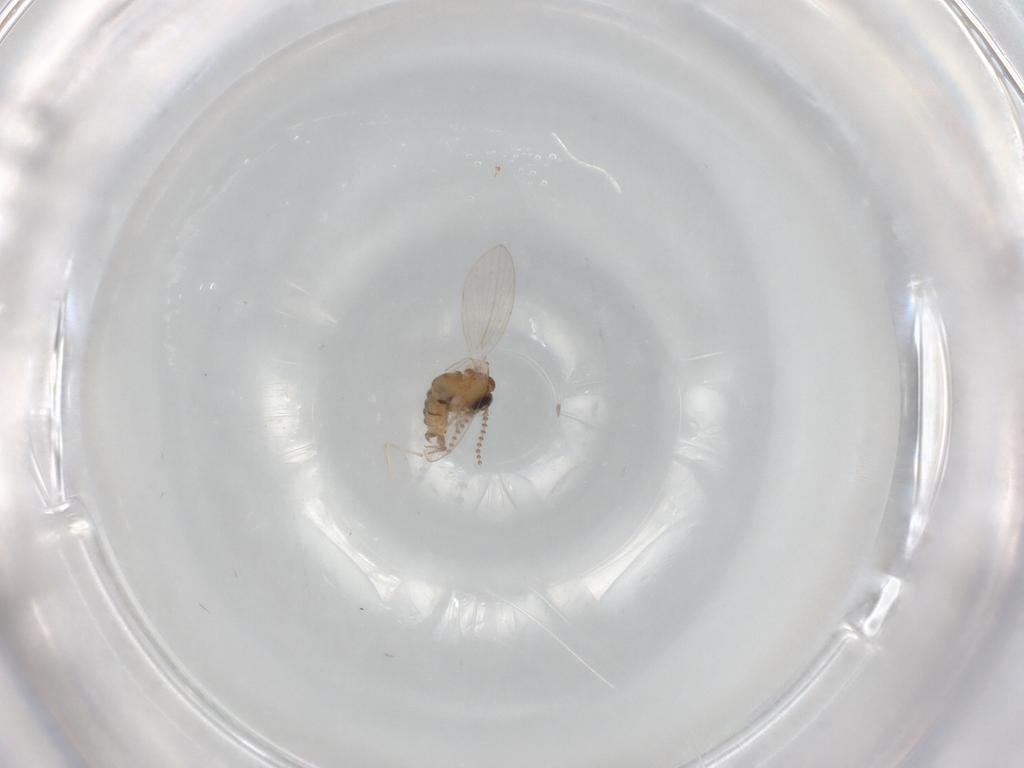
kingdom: Animalia
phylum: Arthropoda
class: Insecta
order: Diptera
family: Psychodidae
